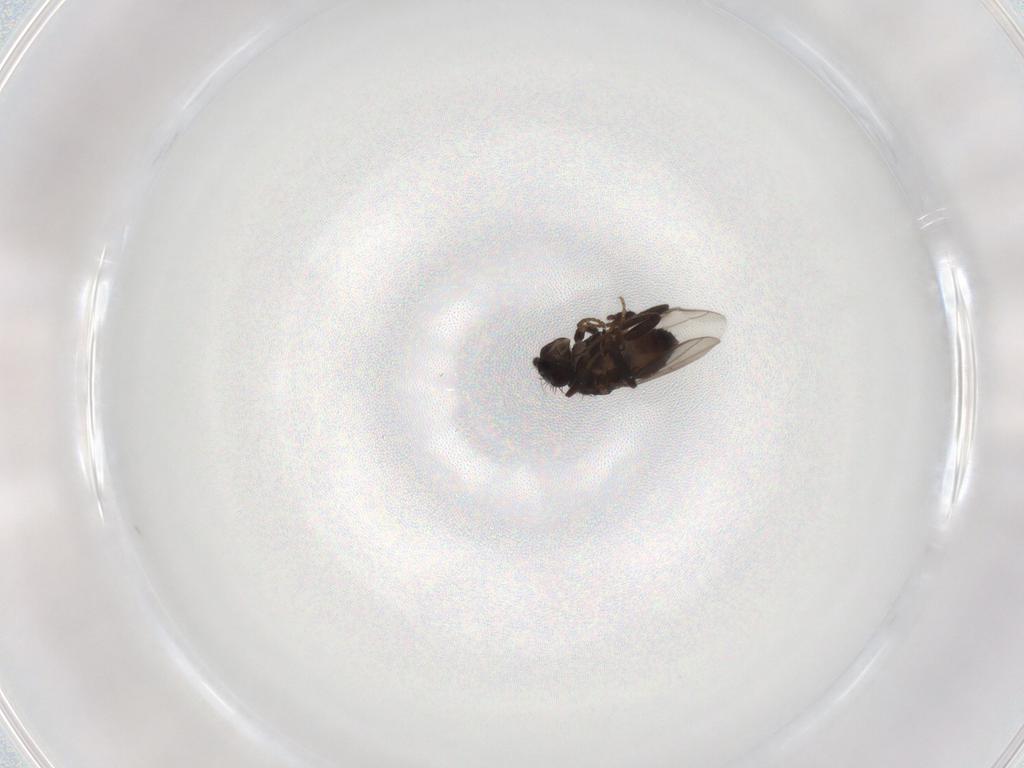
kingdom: Animalia
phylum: Arthropoda
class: Insecta
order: Diptera
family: Sphaeroceridae
